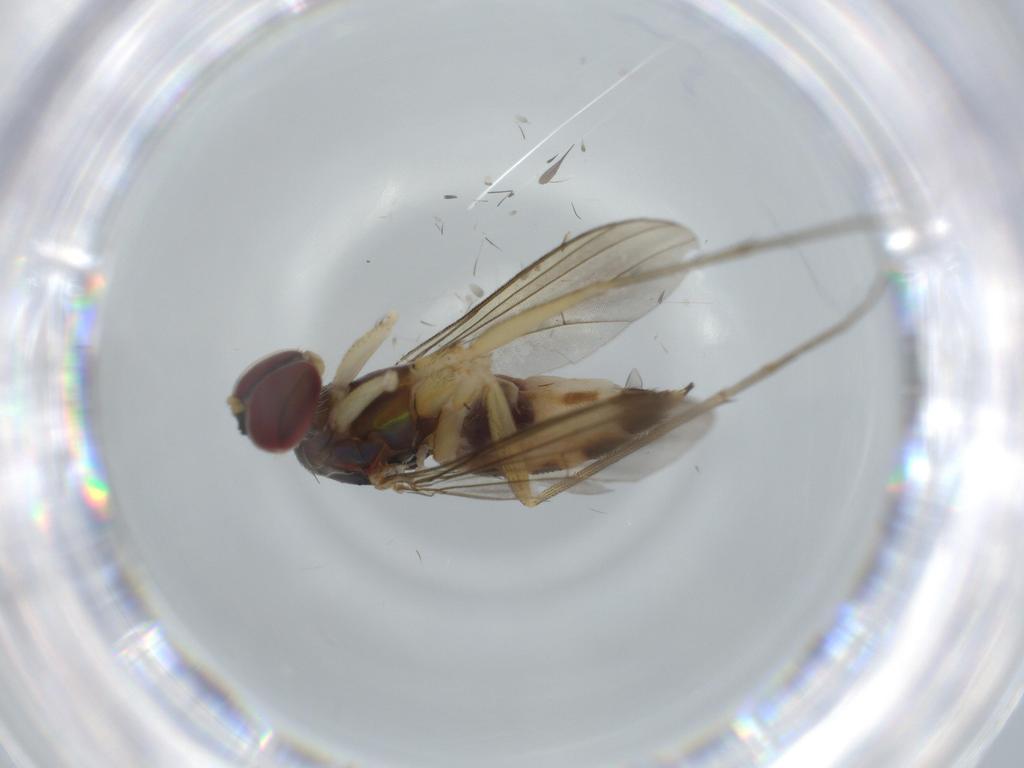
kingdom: Animalia
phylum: Arthropoda
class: Insecta
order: Diptera
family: Dolichopodidae
